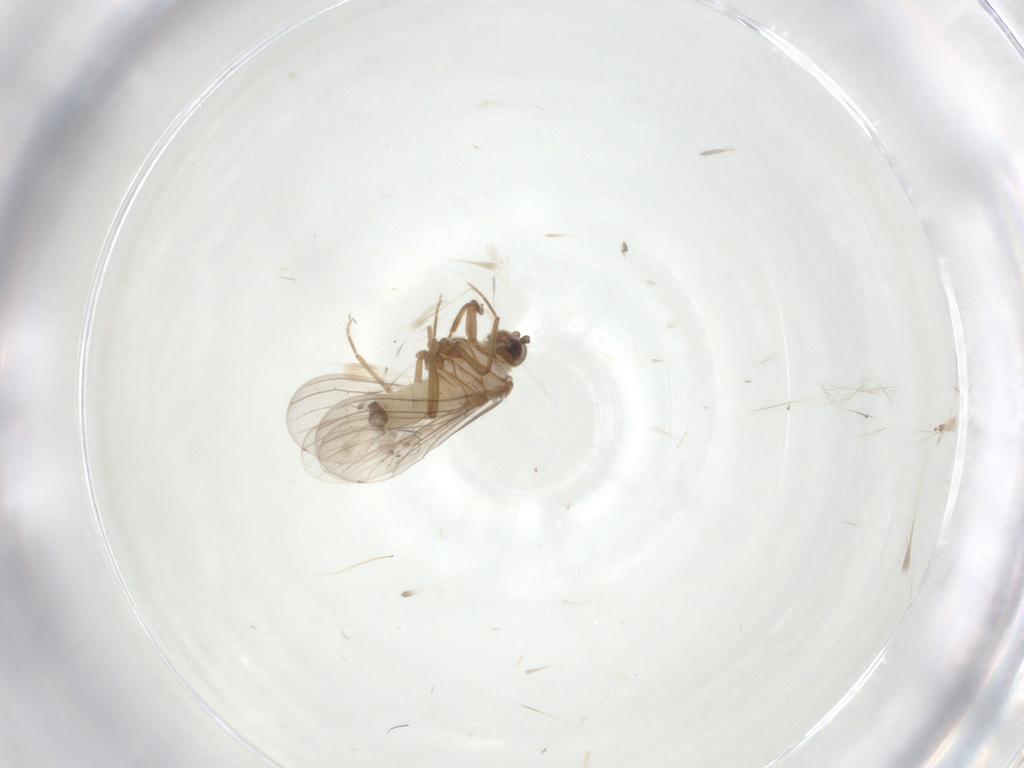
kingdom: Animalia
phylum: Arthropoda
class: Insecta
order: Neuroptera
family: Coniopterygidae
